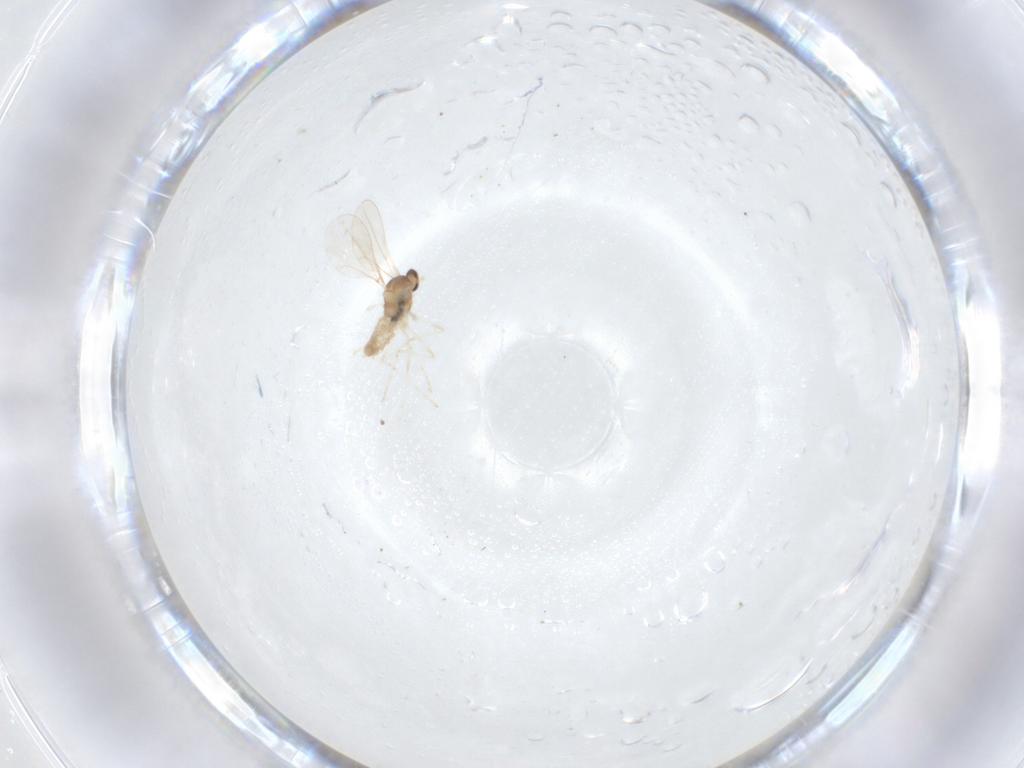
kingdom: Animalia
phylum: Arthropoda
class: Insecta
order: Diptera
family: Cecidomyiidae
